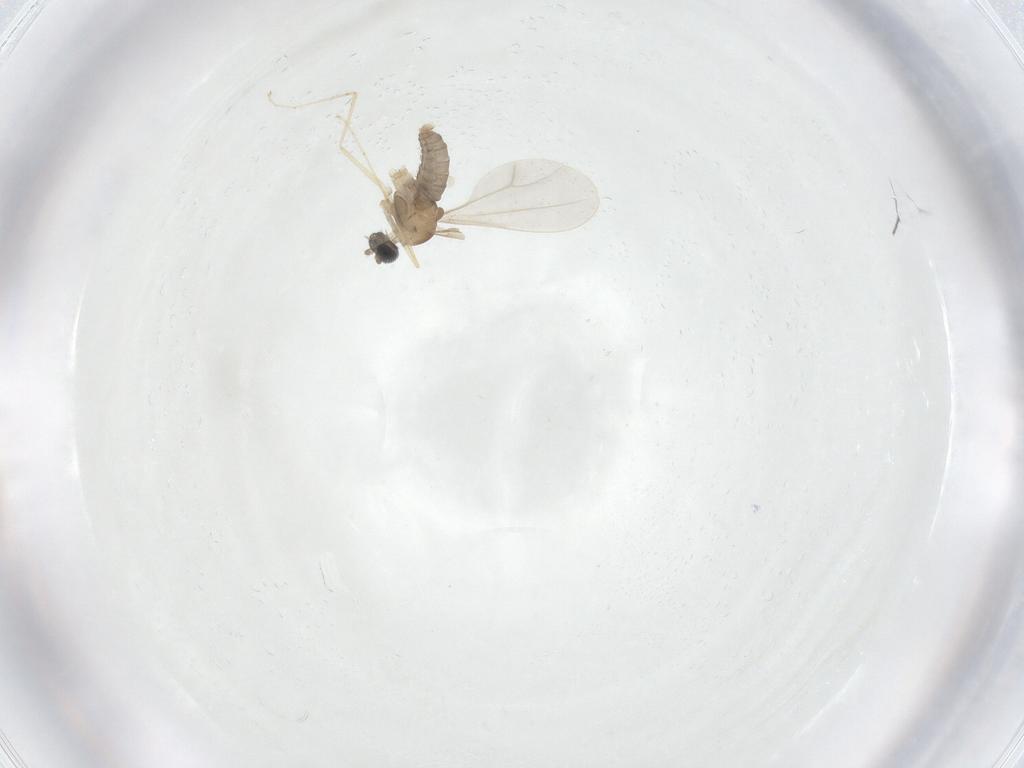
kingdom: Animalia
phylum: Arthropoda
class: Insecta
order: Diptera
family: Cecidomyiidae
